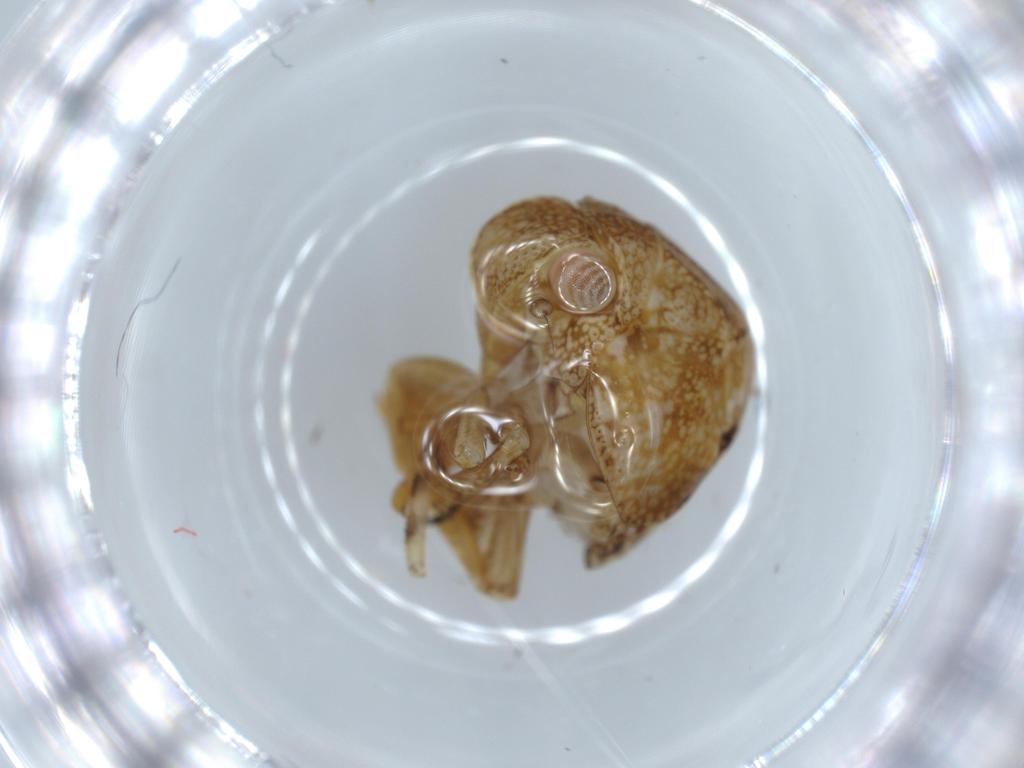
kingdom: Animalia
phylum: Arthropoda
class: Insecta
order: Hemiptera
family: Acanaloniidae
